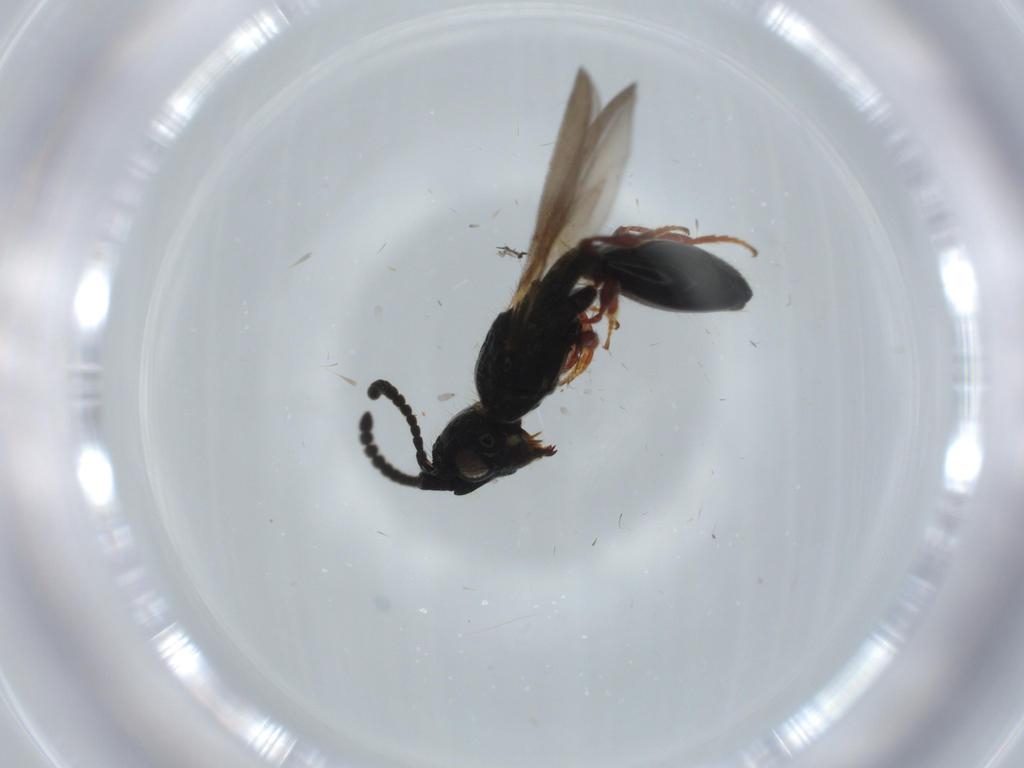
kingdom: Animalia
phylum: Arthropoda
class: Insecta
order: Hymenoptera
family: Diapriidae
